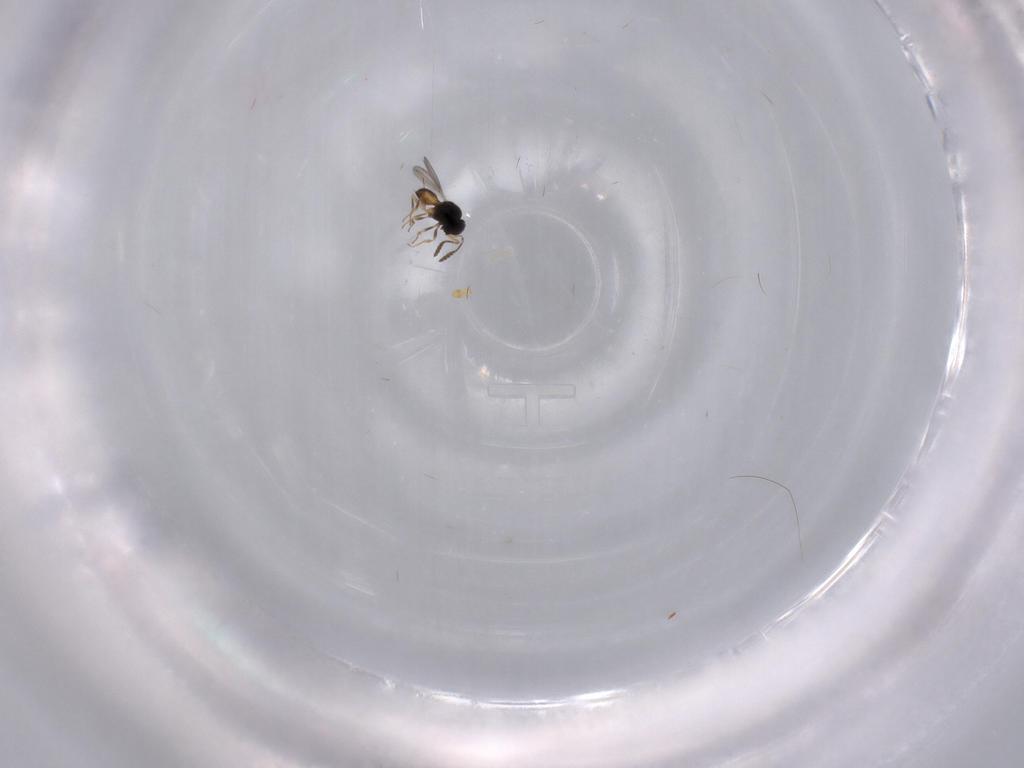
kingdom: Animalia
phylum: Arthropoda
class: Insecta
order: Hymenoptera
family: Scelionidae
